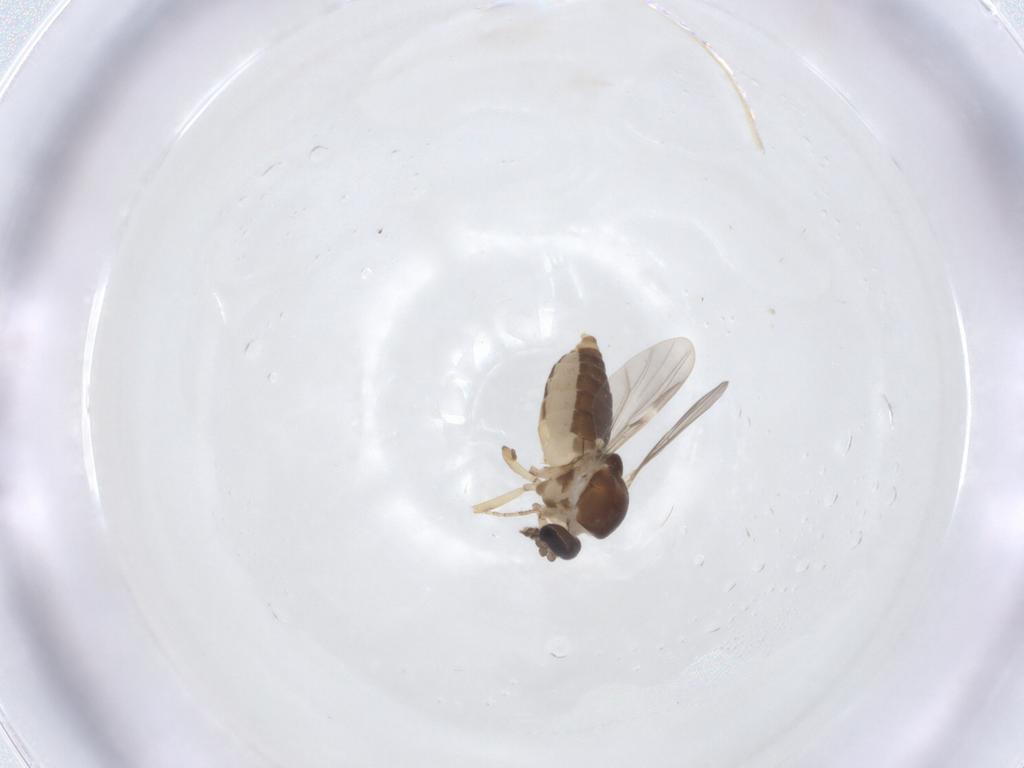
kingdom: Animalia
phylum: Arthropoda
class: Insecta
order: Diptera
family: Ceratopogonidae
